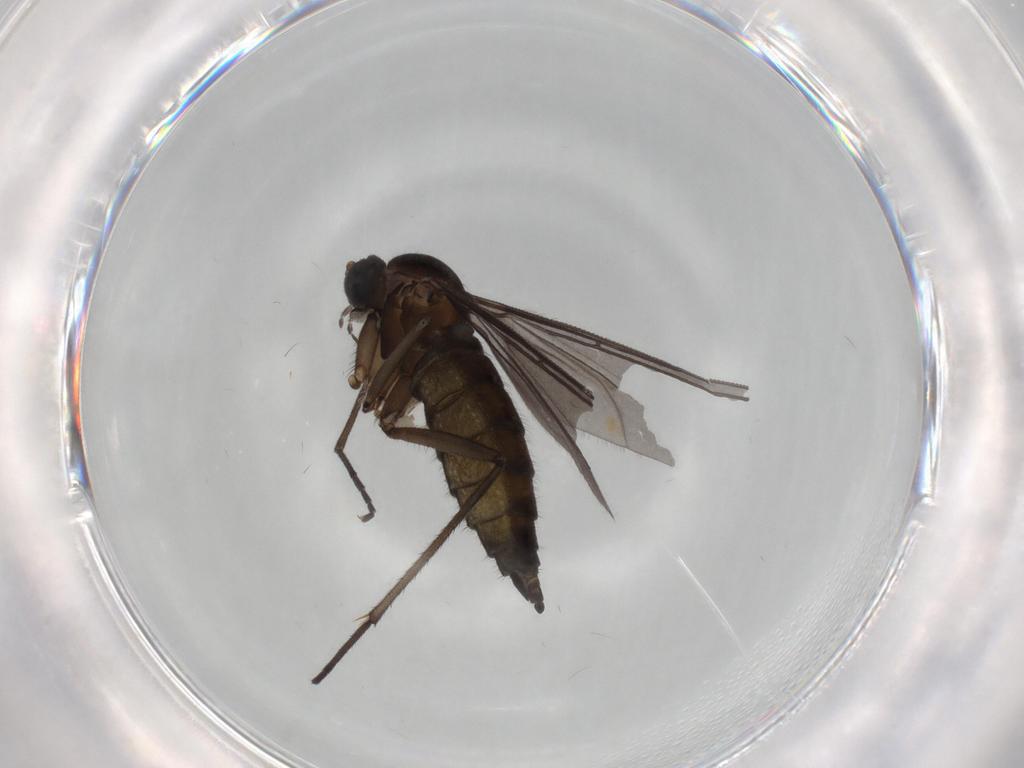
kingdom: Animalia
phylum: Arthropoda
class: Insecta
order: Diptera
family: Sciaridae
